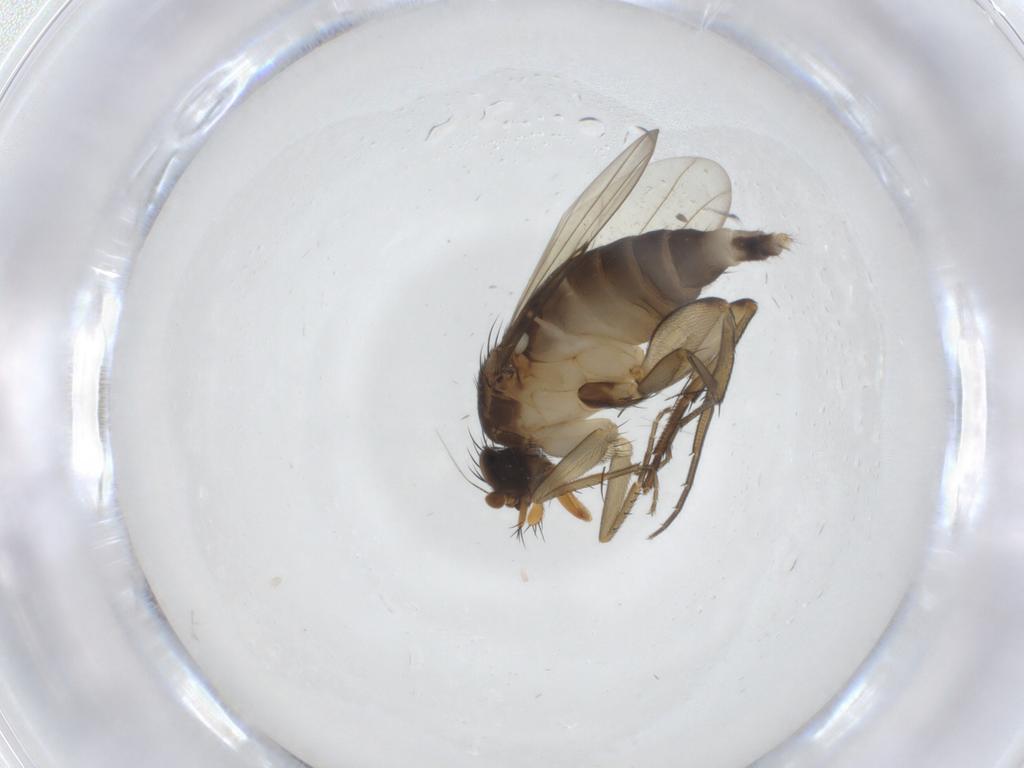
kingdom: Animalia
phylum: Arthropoda
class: Insecta
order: Diptera
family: Phoridae
